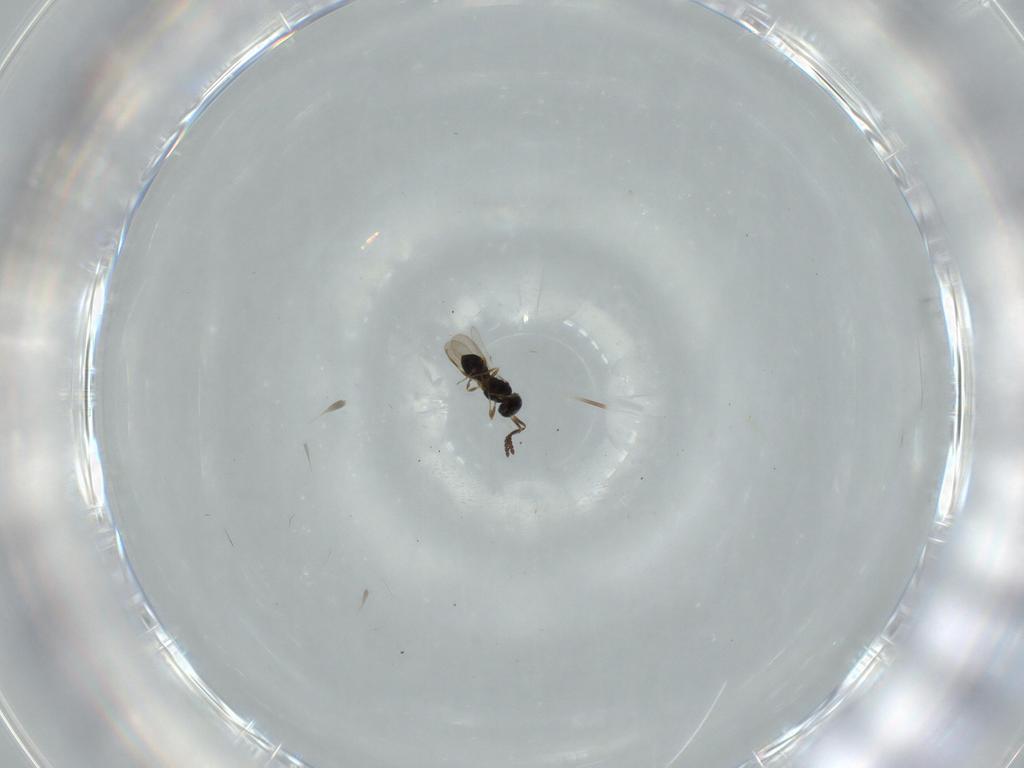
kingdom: Animalia
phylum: Arthropoda
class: Insecta
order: Hymenoptera
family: Scelionidae
